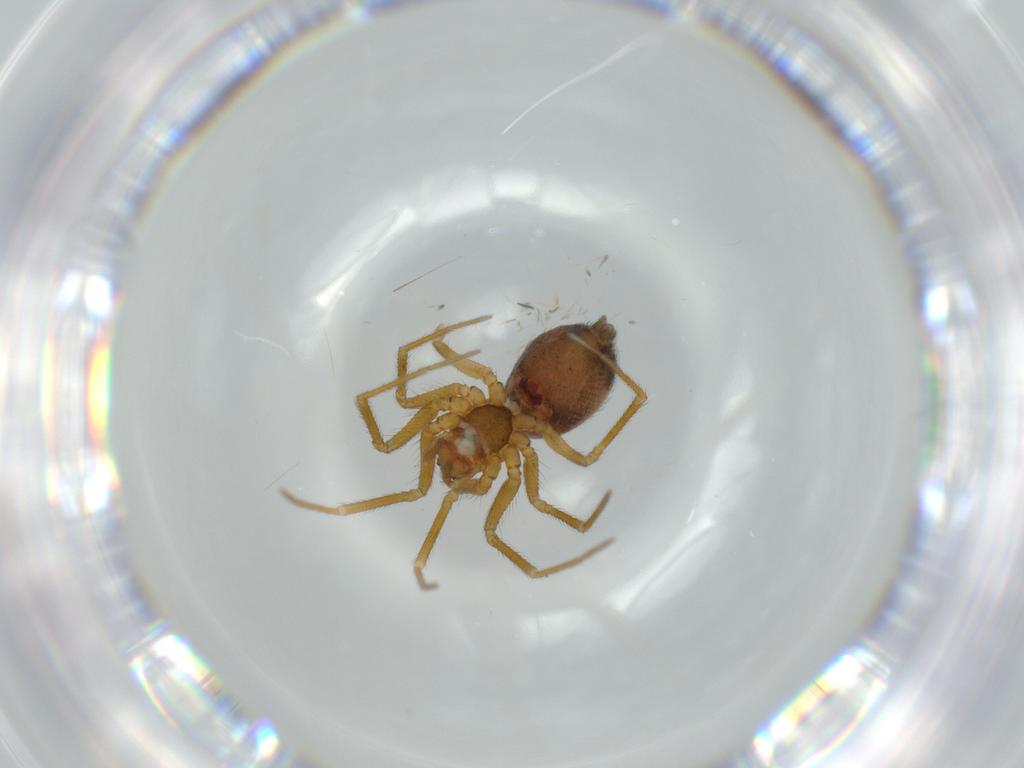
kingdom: Animalia
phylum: Arthropoda
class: Arachnida
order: Araneae
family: Linyphiidae
